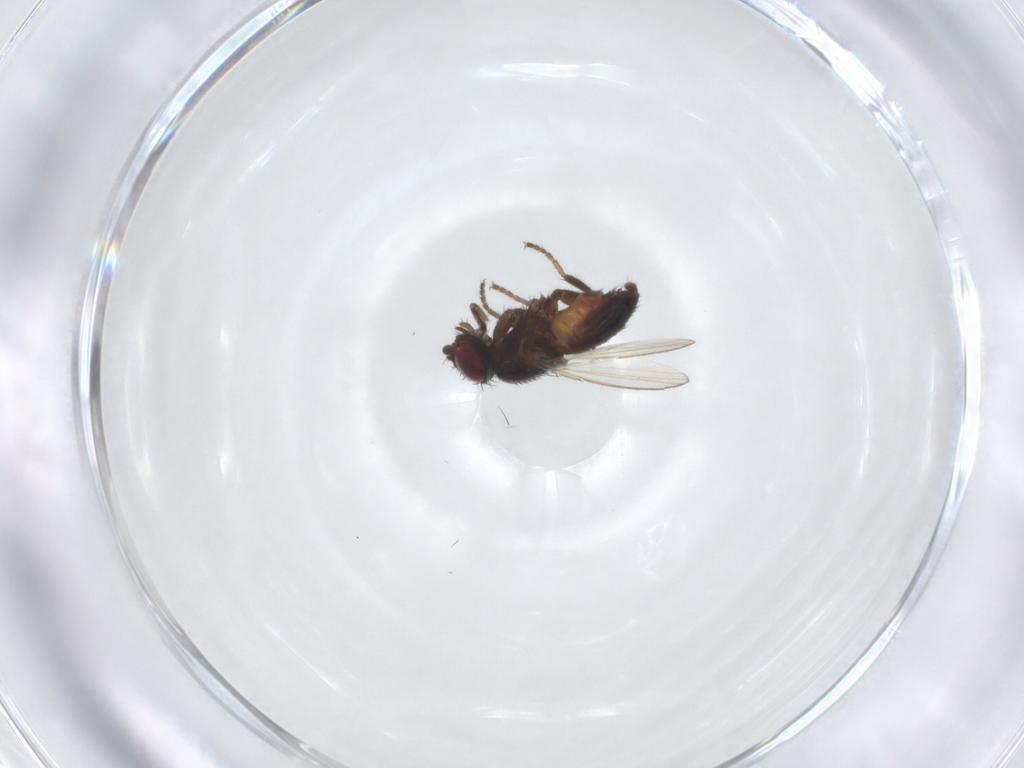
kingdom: Animalia
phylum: Arthropoda
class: Insecta
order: Diptera
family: Milichiidae
